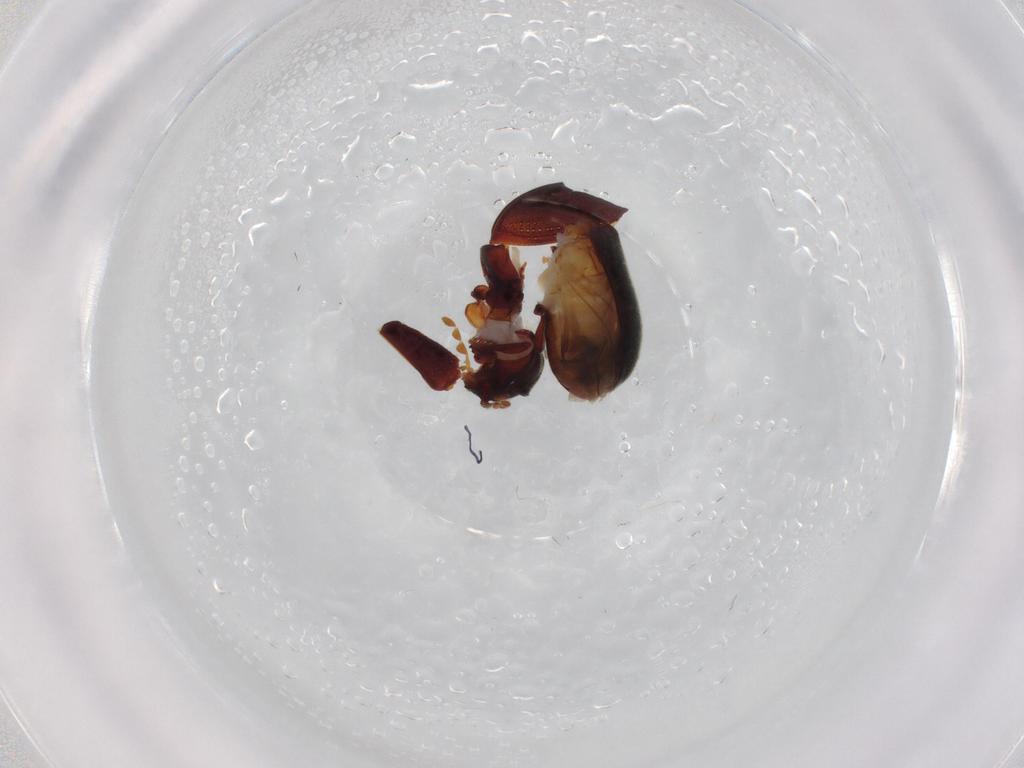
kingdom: Animalia
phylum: Arthropoda
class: Insecta
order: Coleoptera
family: Ptinidae
